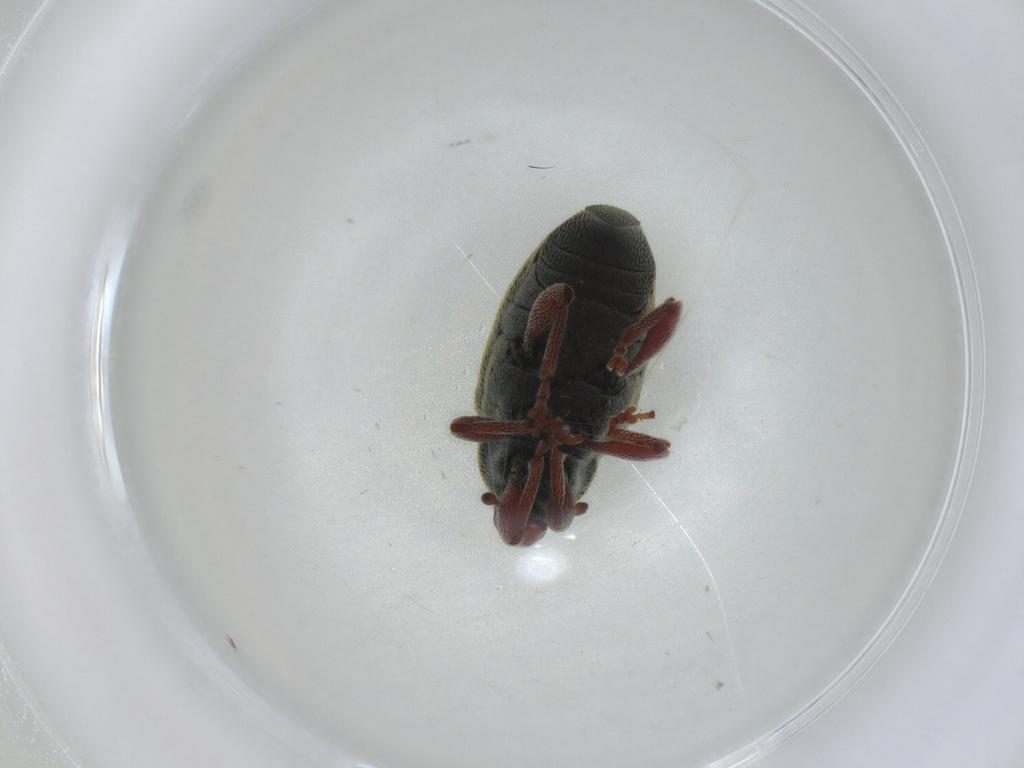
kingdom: Animalia
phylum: Arthropoda
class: Insecta
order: Coleoptera
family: Curculionidae
